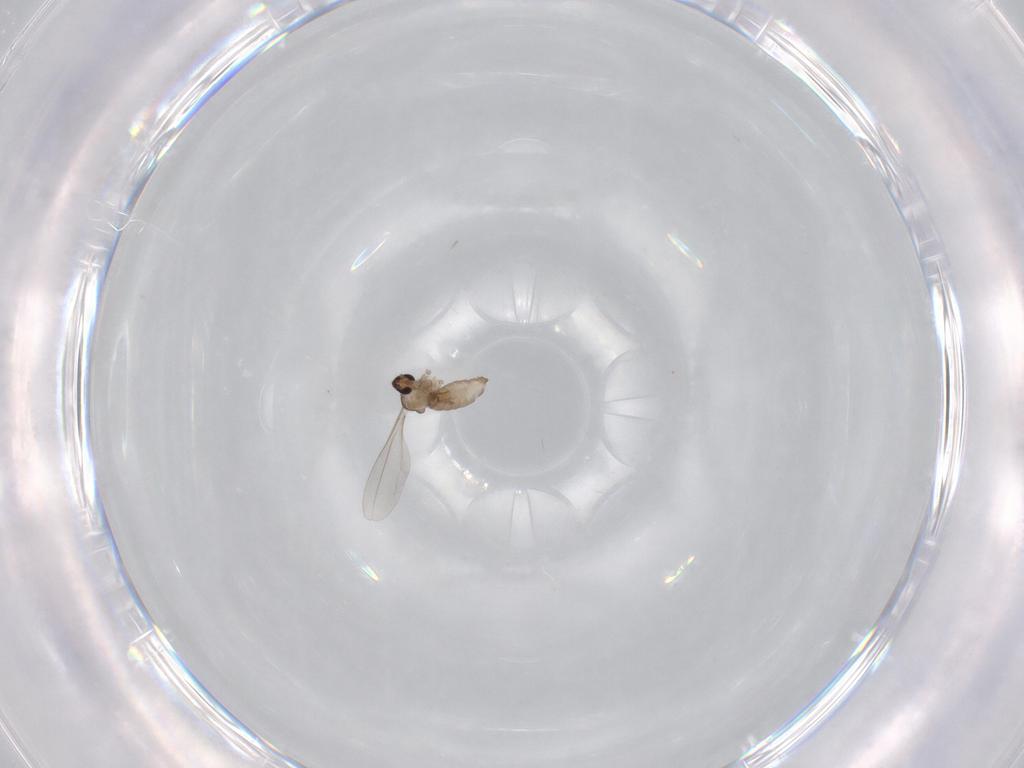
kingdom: Animalia
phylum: Arthropoda
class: Insecta
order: Diptera
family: Cecidomyiidae
